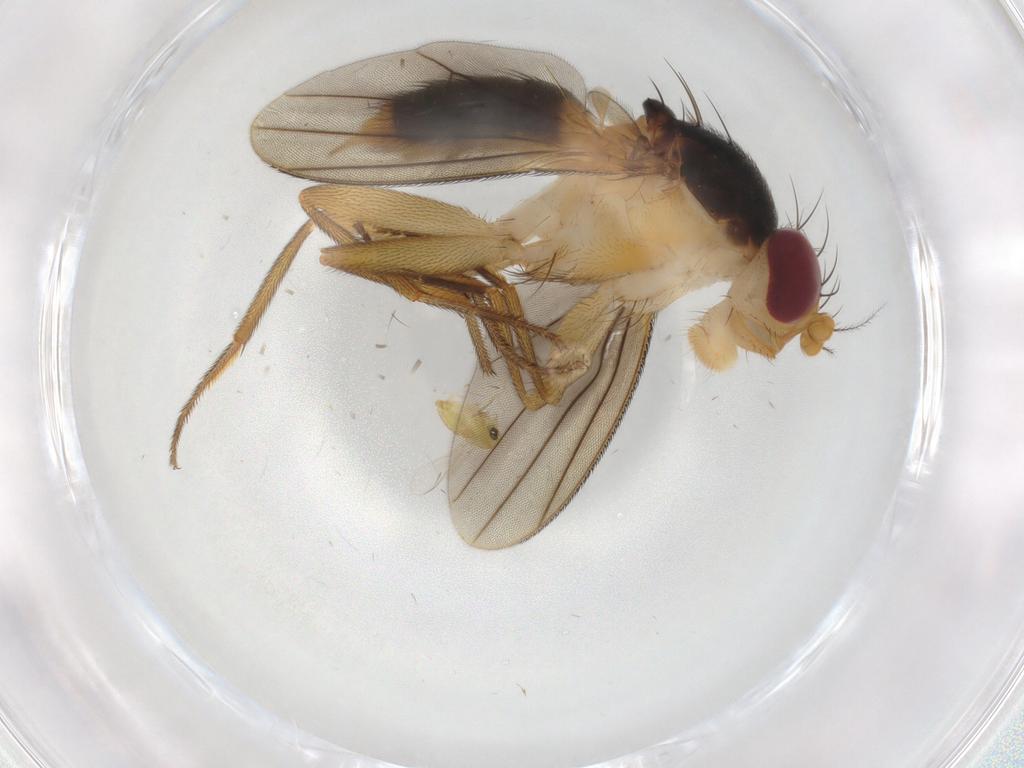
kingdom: Animalia
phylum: Arthropoda
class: Insecta
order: Diptera
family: Chironomidae
